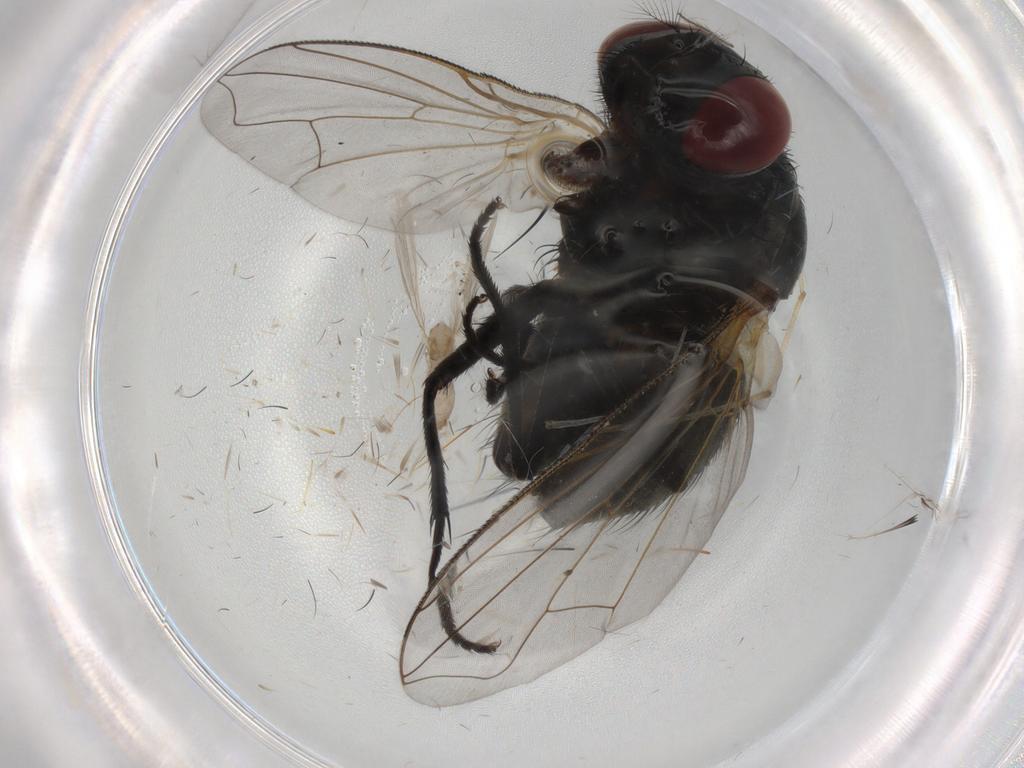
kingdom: Animalia
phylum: Arthropoda
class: Insecta
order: Diptera
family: Muscidae
